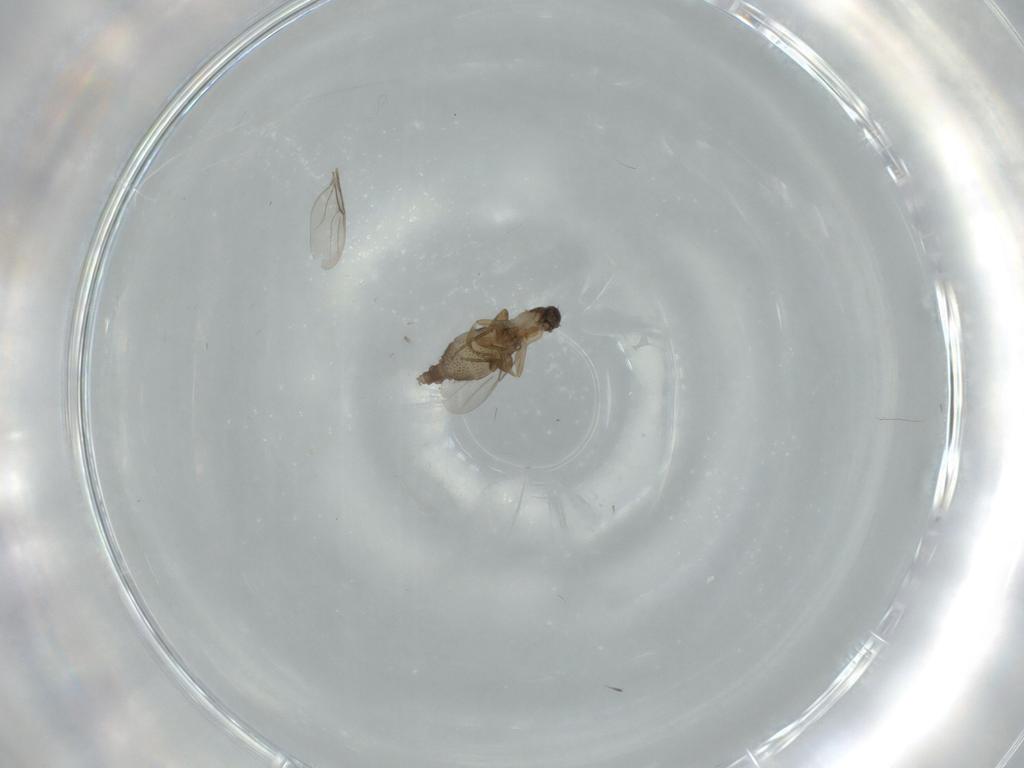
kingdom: Animalia
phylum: Arthropoda
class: Insecta
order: Diptera
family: Phoridae
